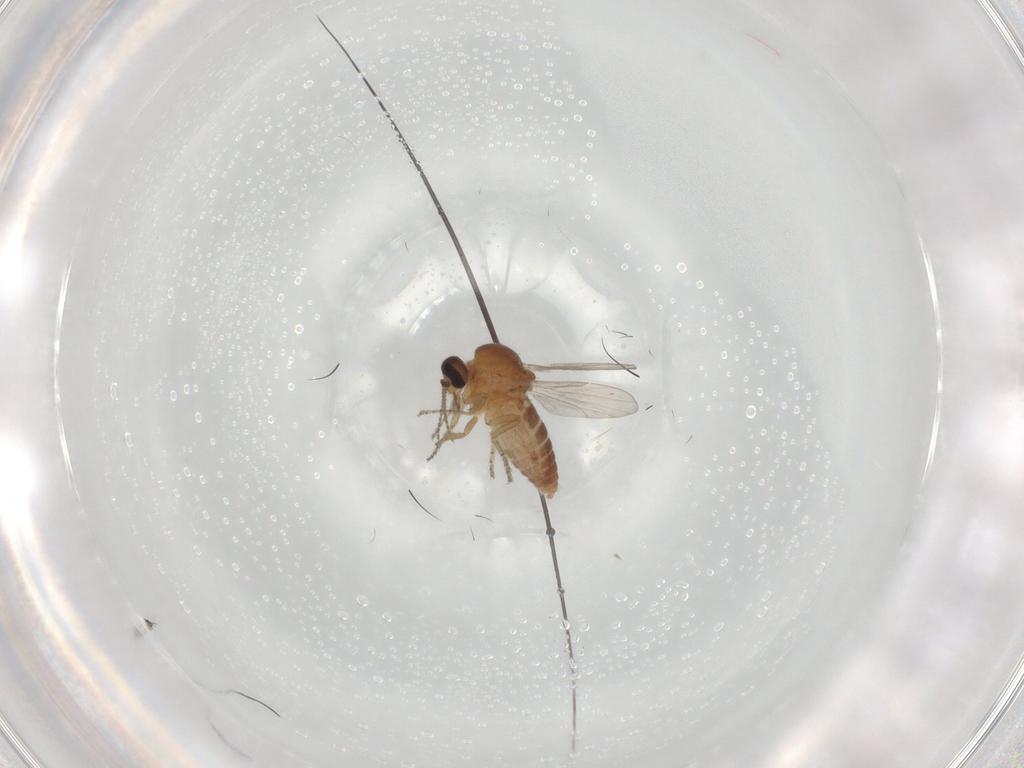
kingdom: Animalia
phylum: Arthropoda
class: Insecta
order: Diptera
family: Ceratopogonidae
